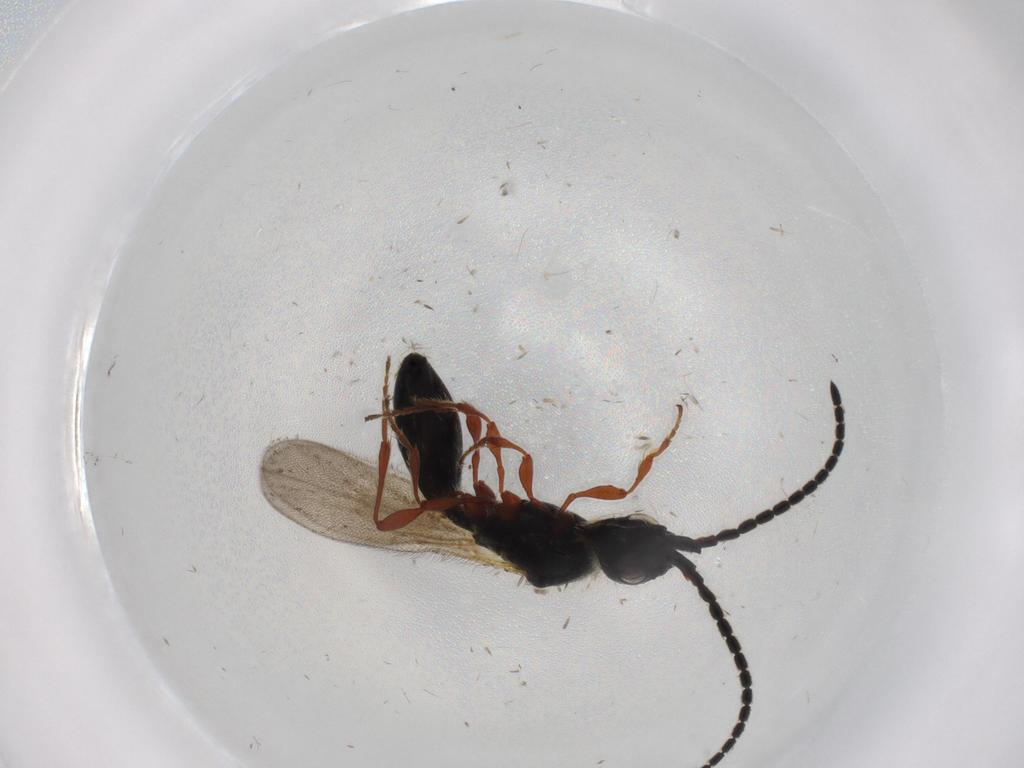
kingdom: Animalia
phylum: Arthropoda
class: Insecta
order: Hymenoptera
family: Diapriidae
